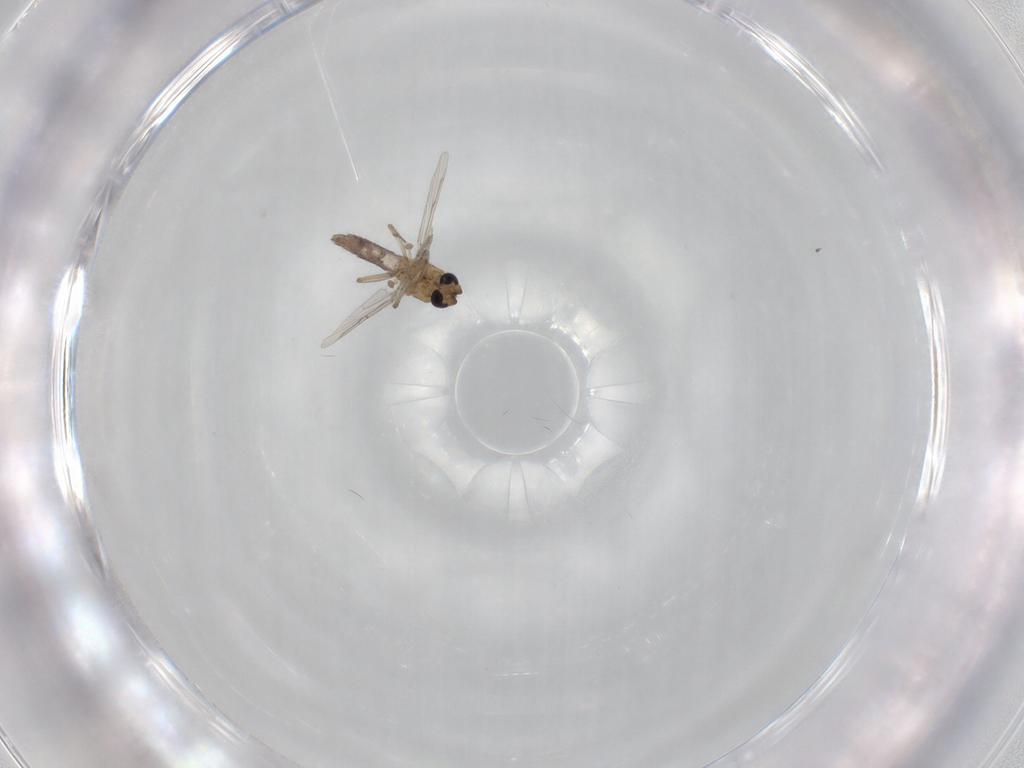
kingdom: Animalia
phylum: Arthropoda
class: Insecta
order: Diptera
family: Ceratopogonidae
